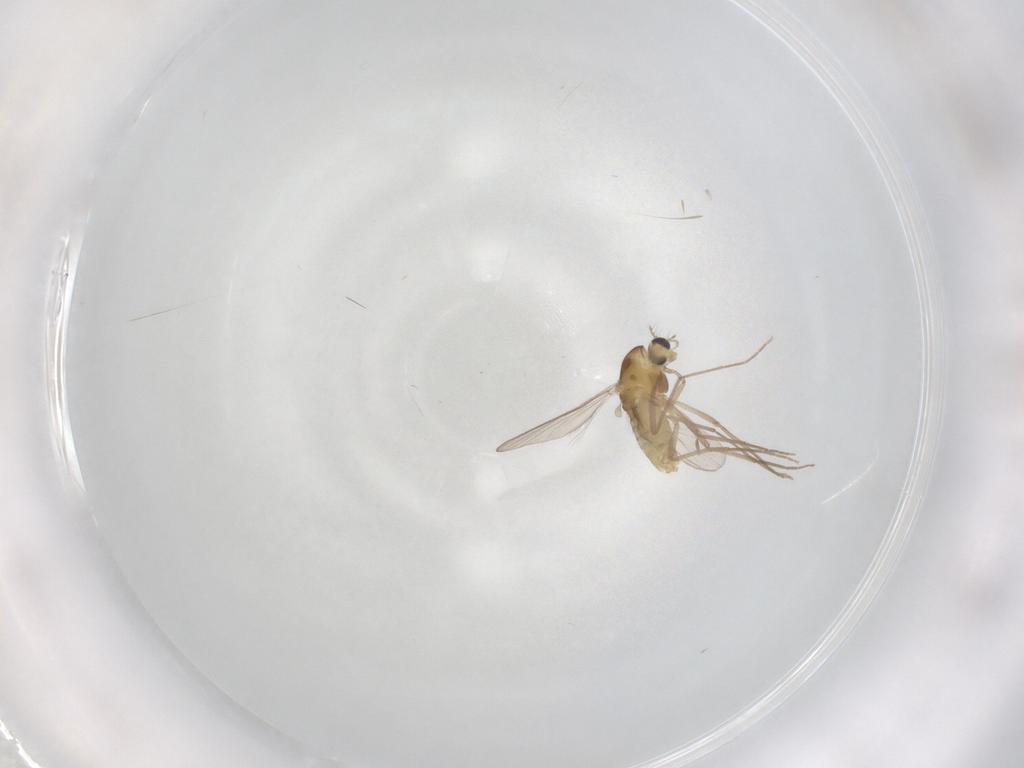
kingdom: Animalia
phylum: Arthropoda
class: Insecta
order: Diptera
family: Chironomidae
